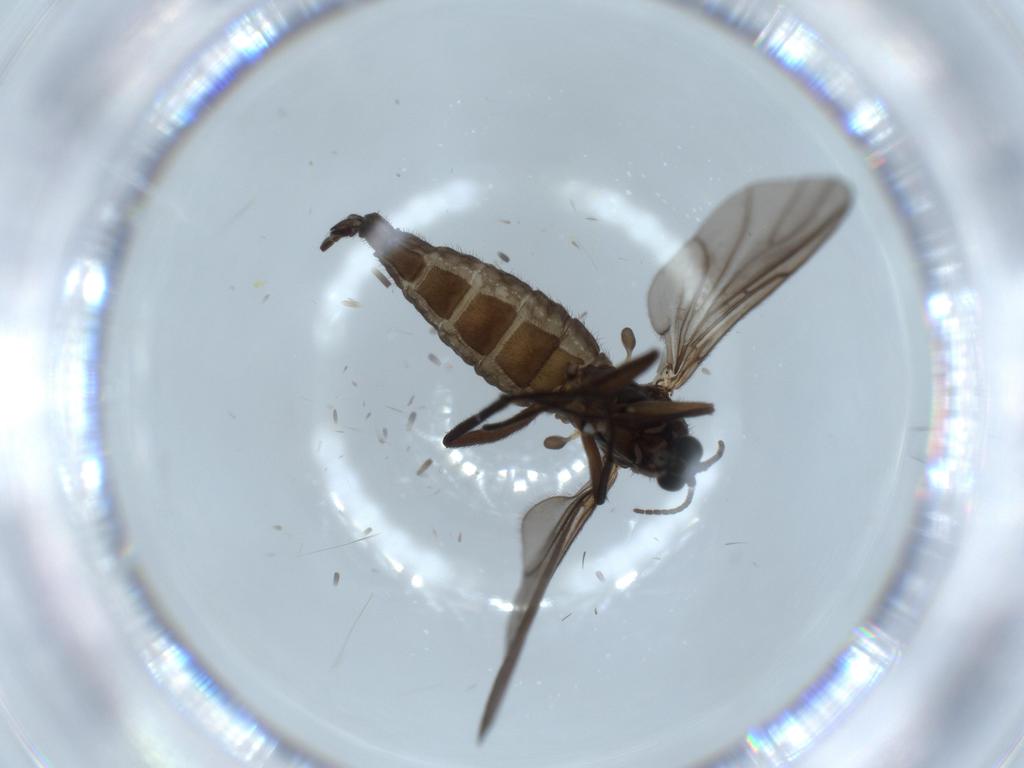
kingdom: Animalia
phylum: Arthropoda
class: Insecta
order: Diptera
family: Sciaridae
